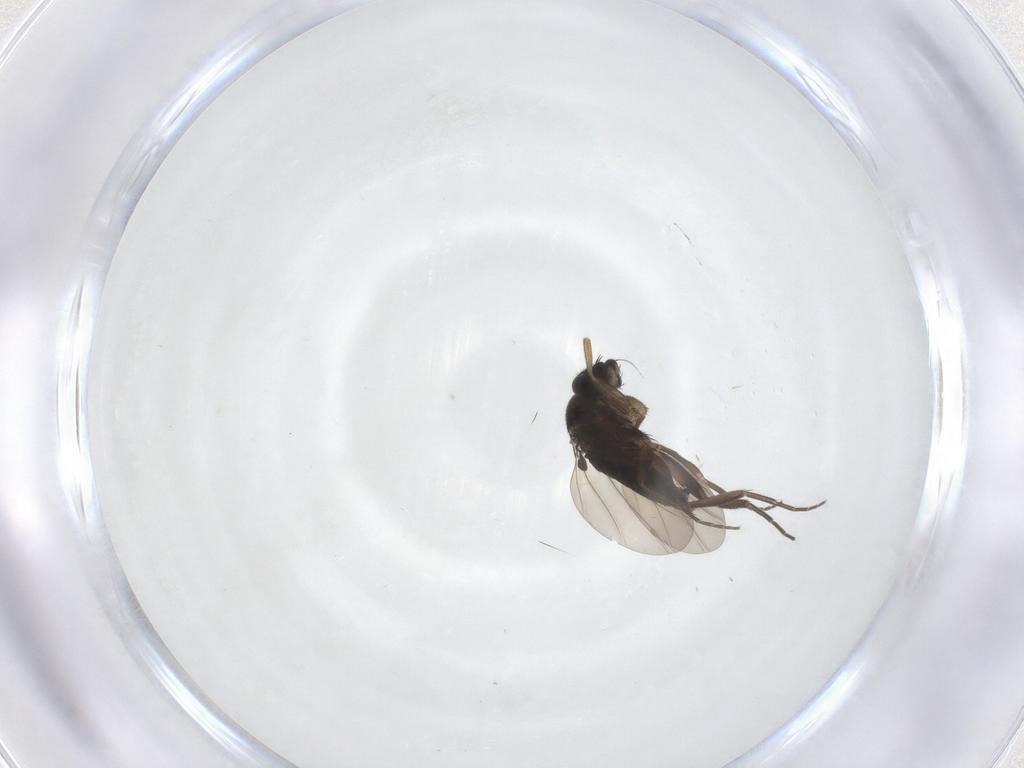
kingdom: Animalia
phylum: Arthropoda
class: Insecta
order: Diptera
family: Phoridae
